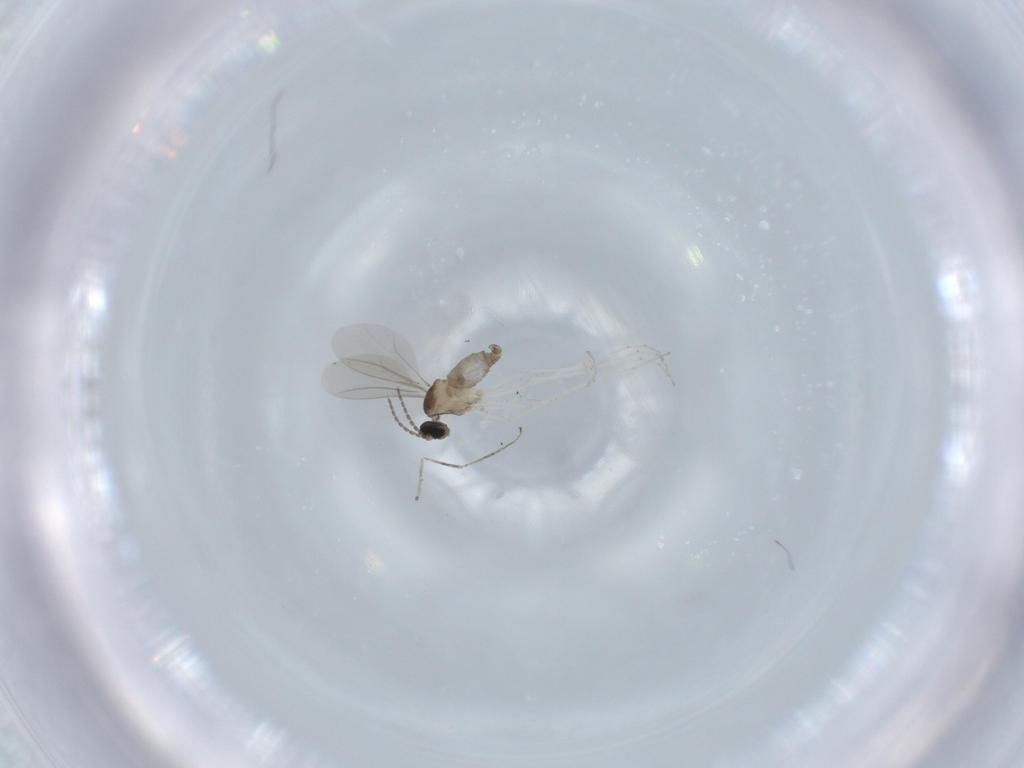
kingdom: Animalia
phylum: Arthropoda
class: Insecta
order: Diptera
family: Cecidomyiidae
